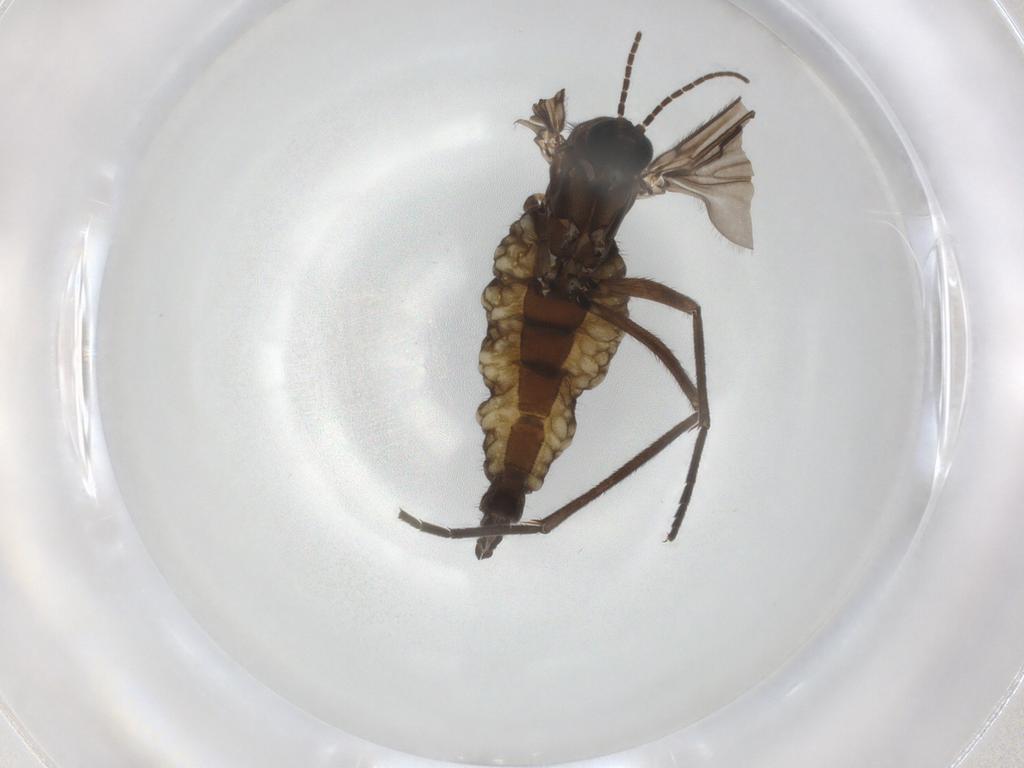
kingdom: Animalia
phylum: Arthropoda
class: Insecta
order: Diptera
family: Sciaridae
